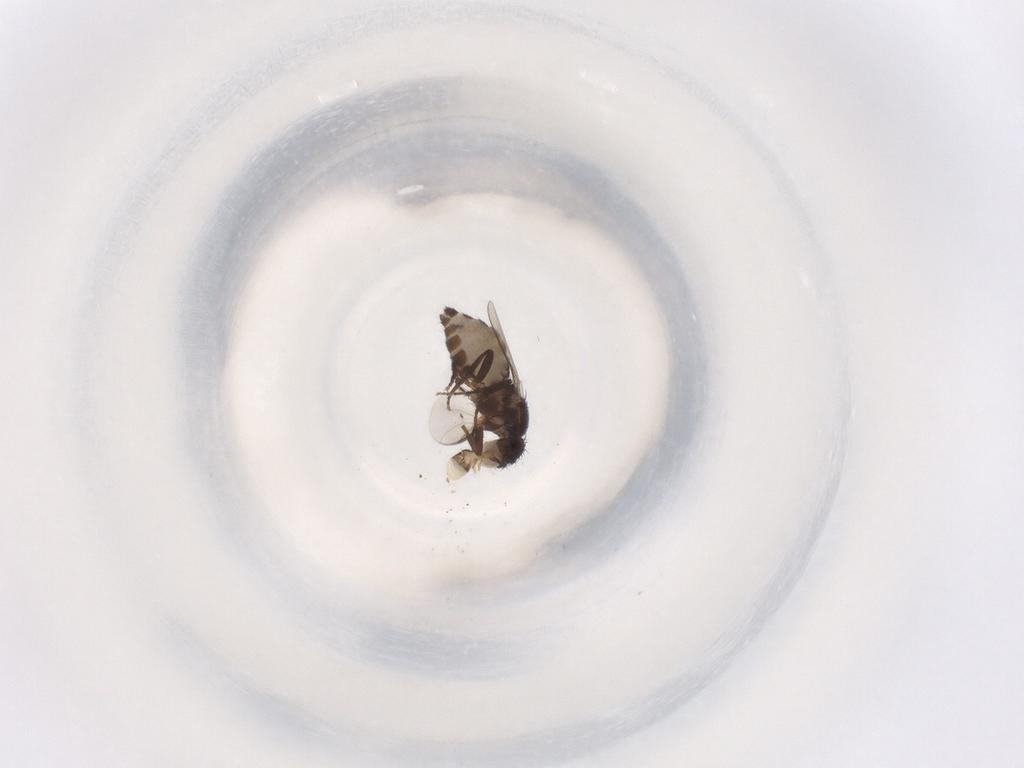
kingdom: Animalia
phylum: Arthropoda
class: Insecta
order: Diptera
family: Sphaeroceridae
